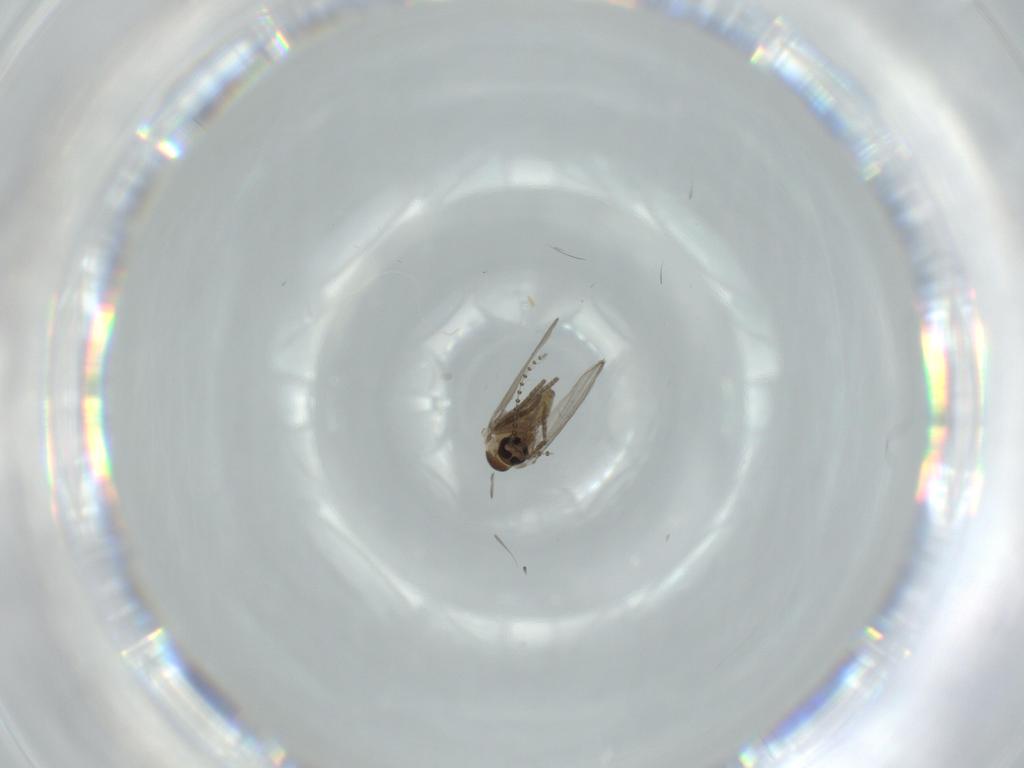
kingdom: Animalia
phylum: Arthropoda
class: Insecta
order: Diptera
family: Psychodidae
